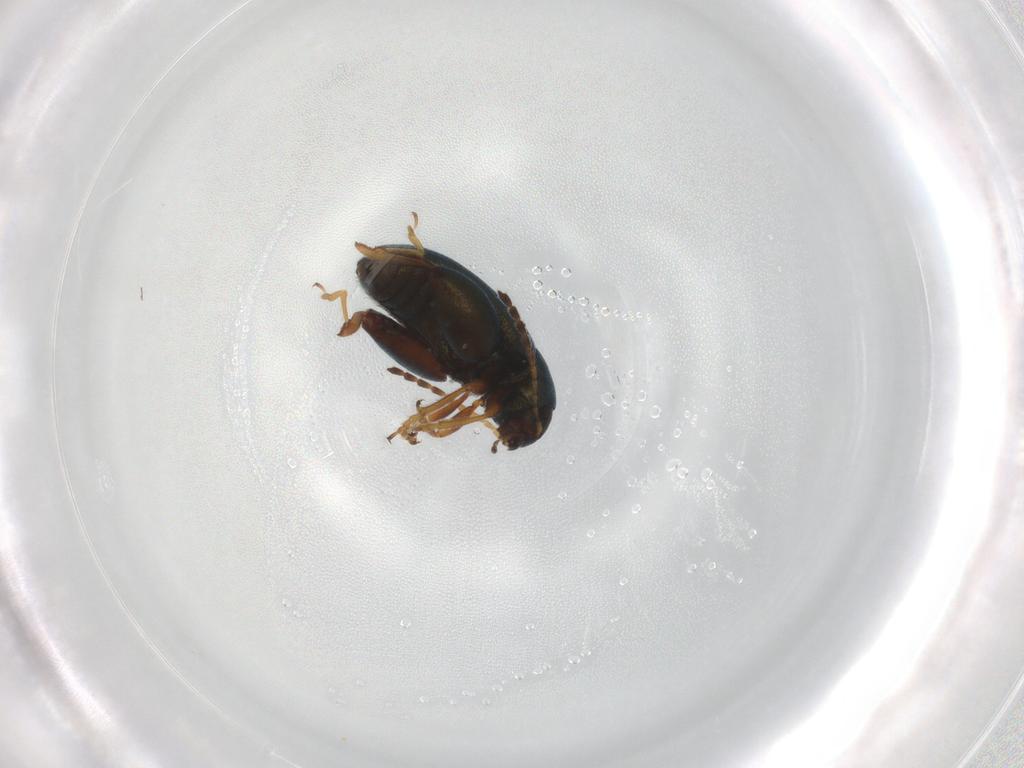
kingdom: Animalia
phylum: Arthropoda
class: Insecta
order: Coleoptera
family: Chrysomelidae
